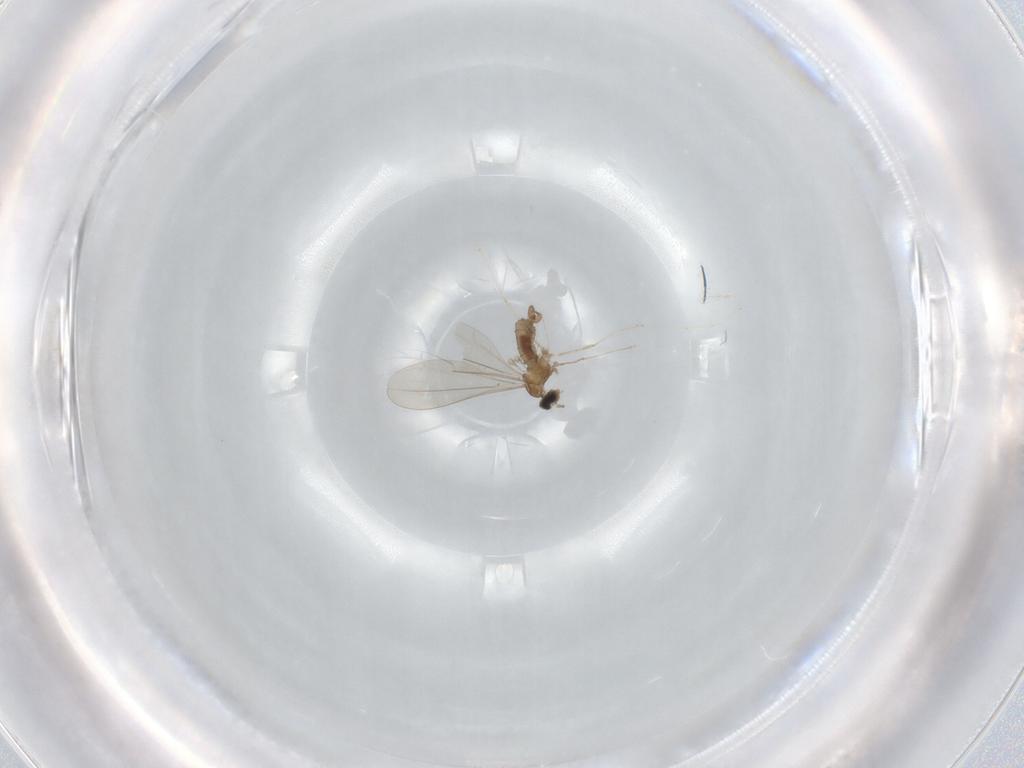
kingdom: Animalia
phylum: Arthropoda
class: Insecta
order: Diptera
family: Cecidomyiidae
